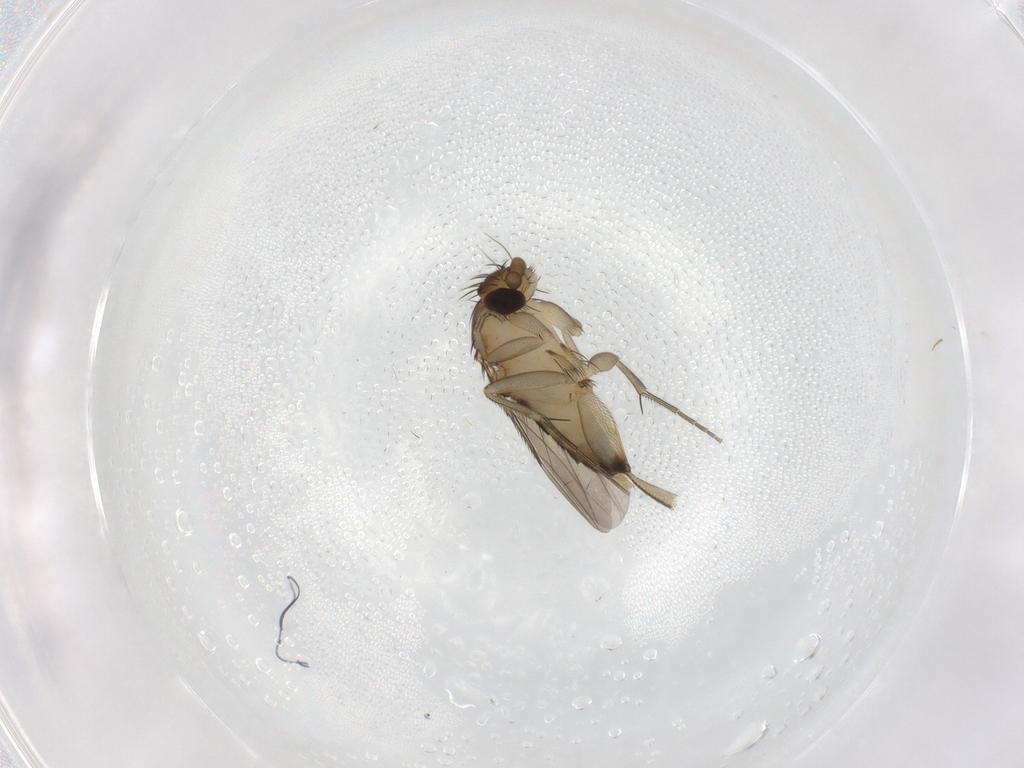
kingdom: Animalia
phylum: Arthropoda
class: Insecta
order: Diptera
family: Phoridae
